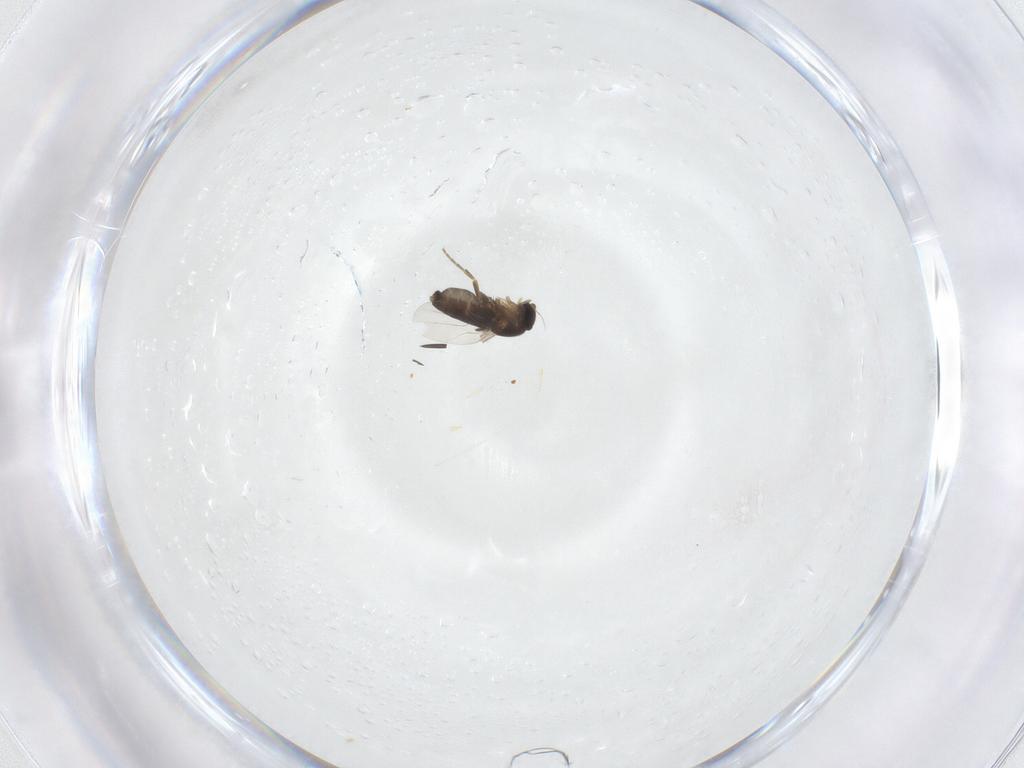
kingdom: Animalia
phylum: Arthropoda
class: Insecta
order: Diptera
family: Phoridae
